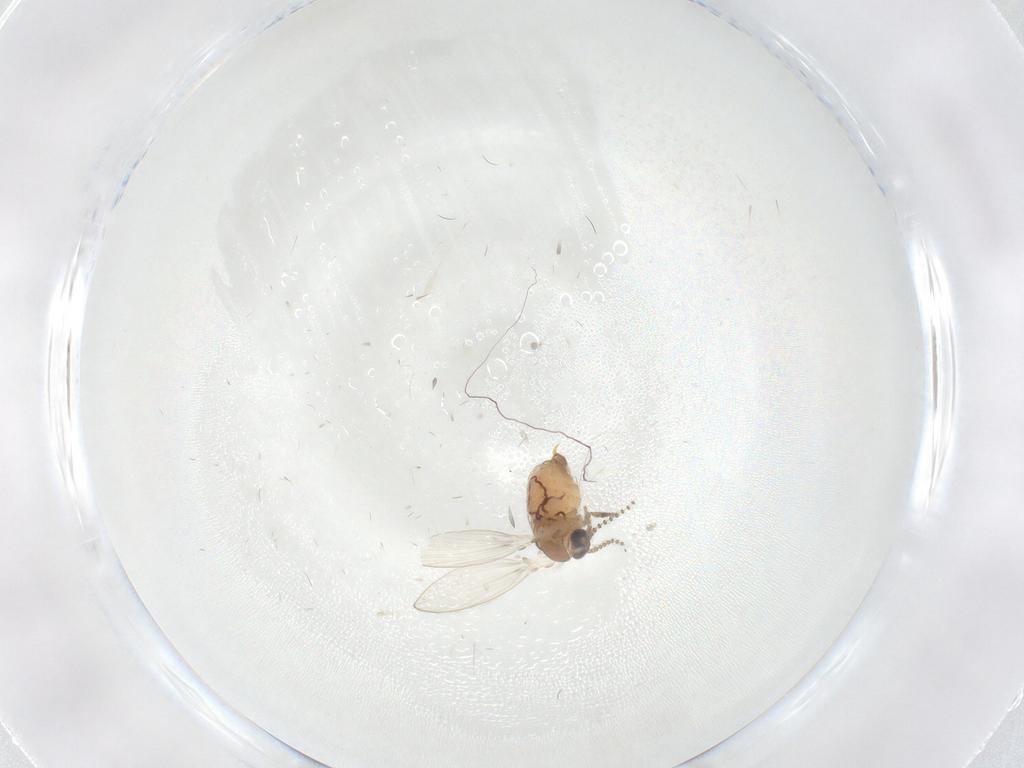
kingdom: Animalia
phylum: Arthropoda
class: Insecta
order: Diptera
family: Psychodidae
